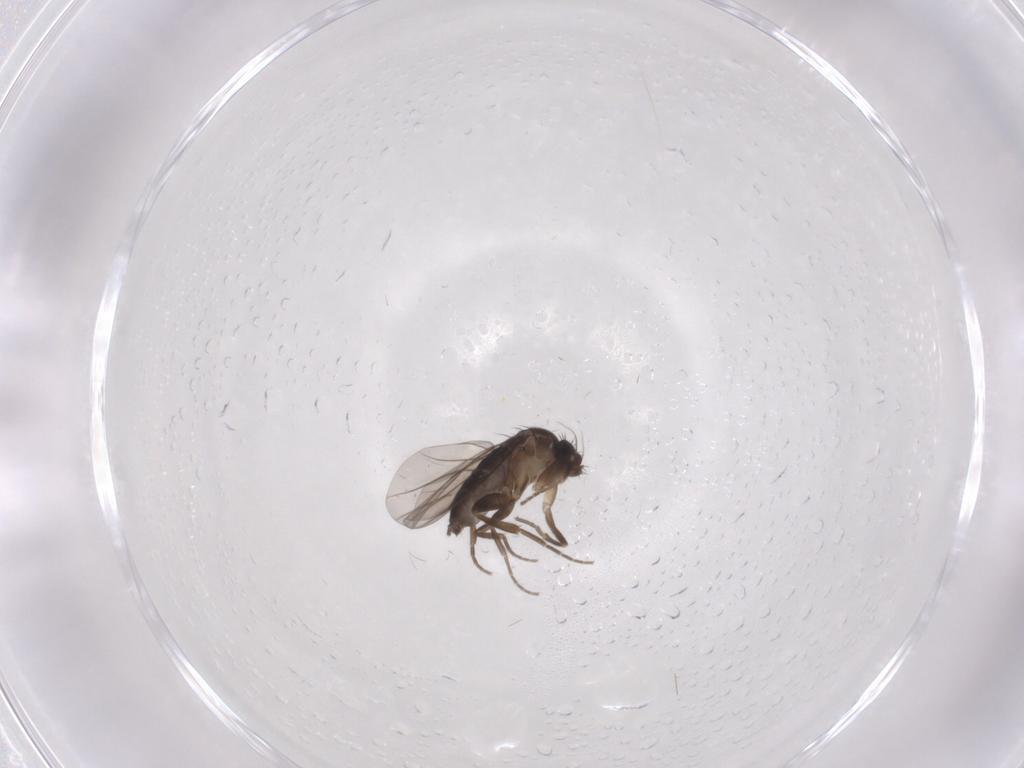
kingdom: Animalia
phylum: Arthropoda
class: Insecta
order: Diptera
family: Phoridae
